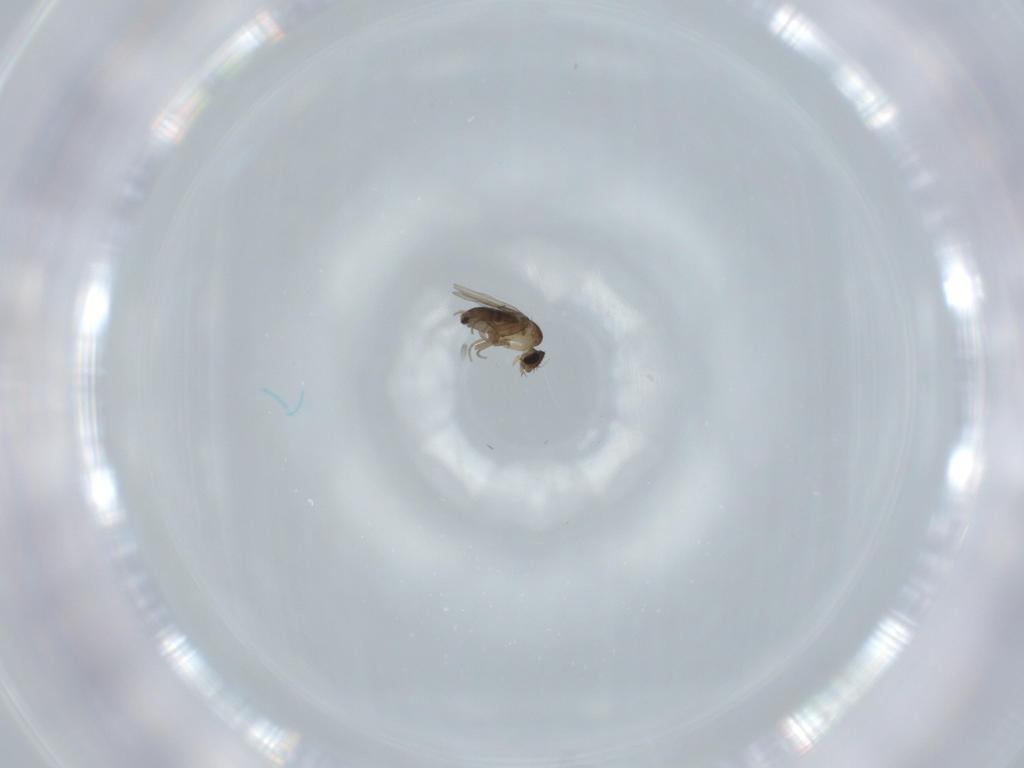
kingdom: Animalia
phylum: Arthropoda
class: Insecta
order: Diptera
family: Phoridae
